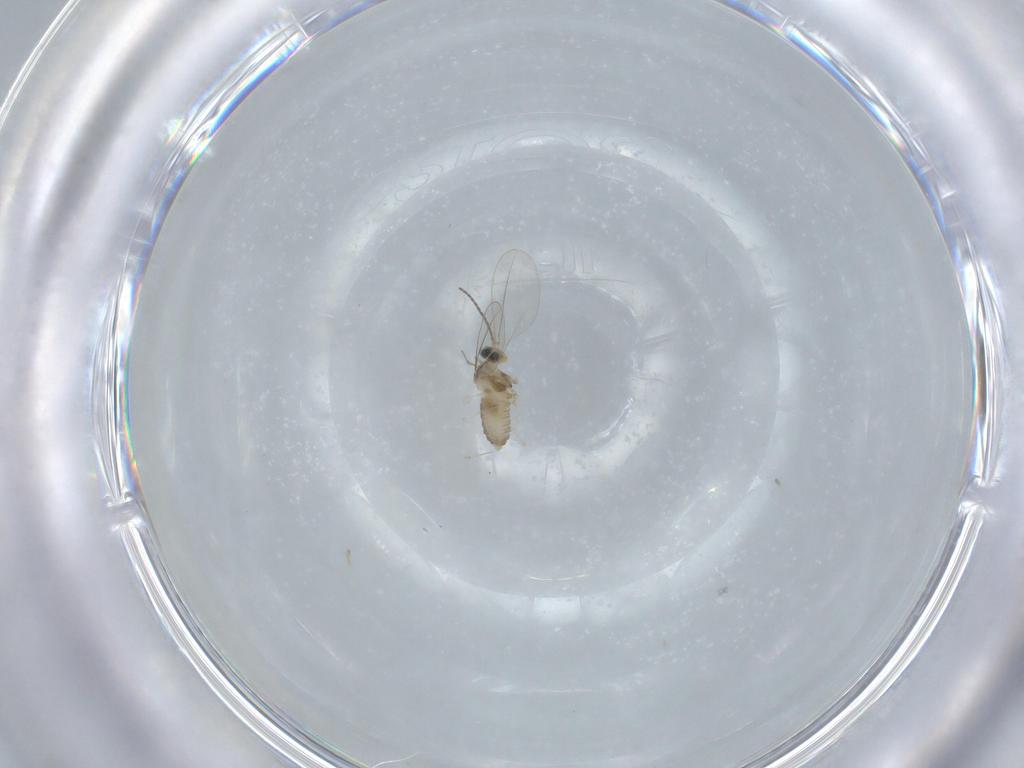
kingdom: Animalia
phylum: Arthropoda
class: Insecta
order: Diptera
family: Cecidomyiidae
